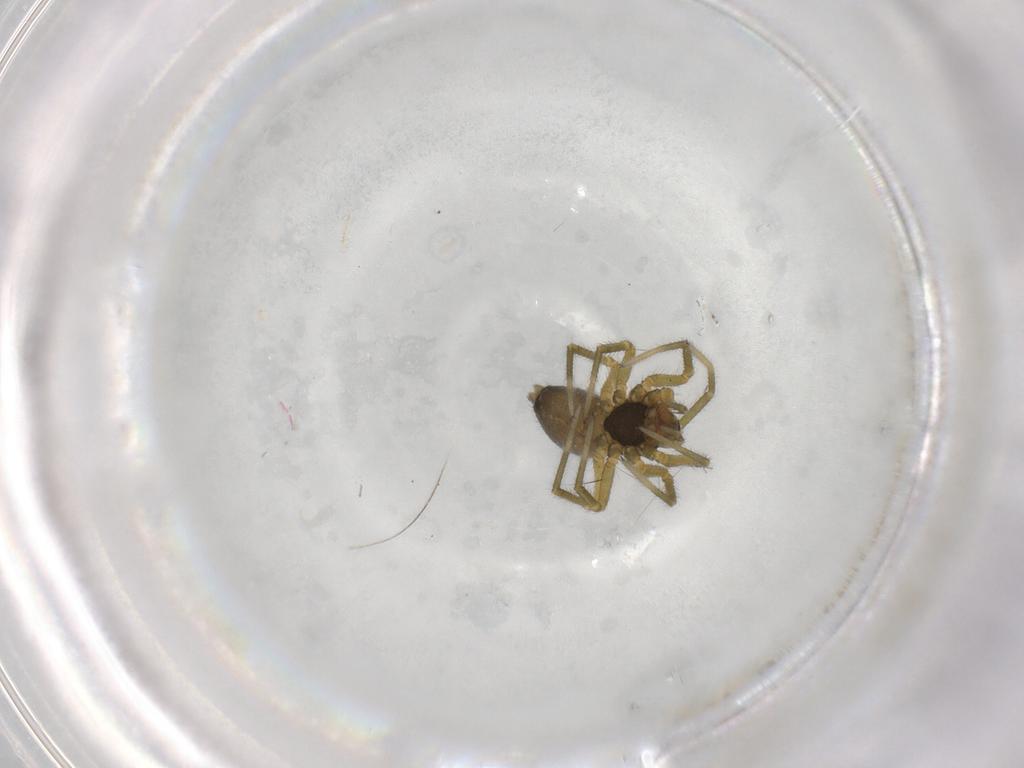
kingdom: Animalia
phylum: Arthropoda
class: Arachnida
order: Araneae
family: Linyphiidae
